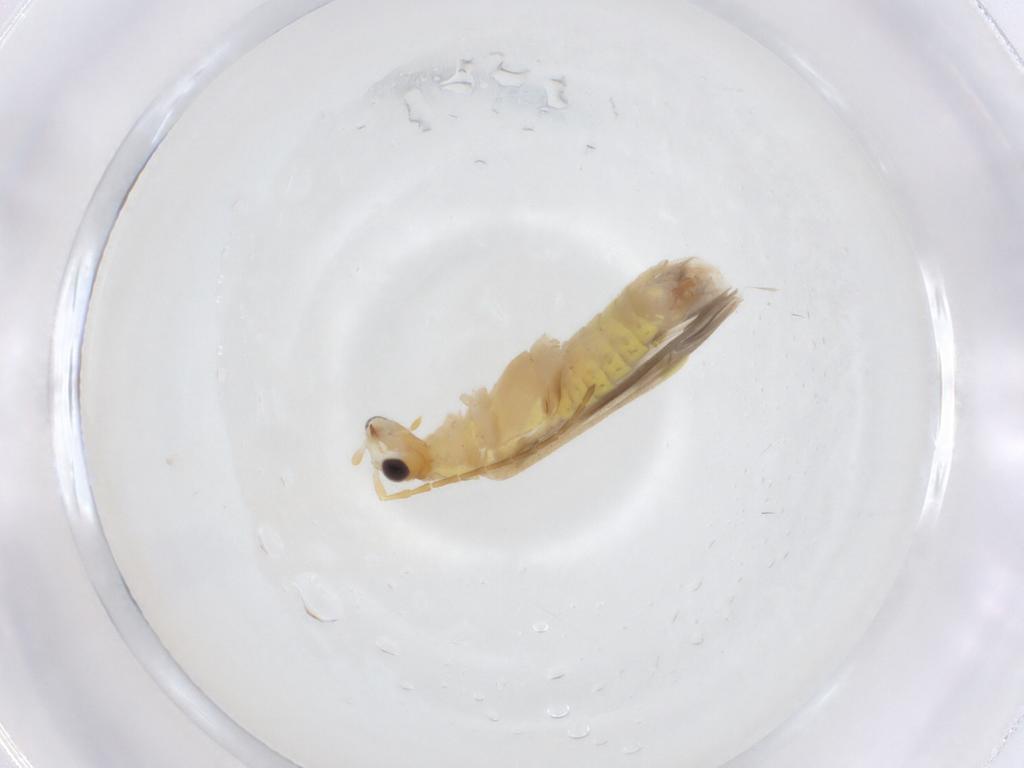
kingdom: Animalia
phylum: Arthropoda
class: Insecta
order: Coleoptera
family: Cantharidae
